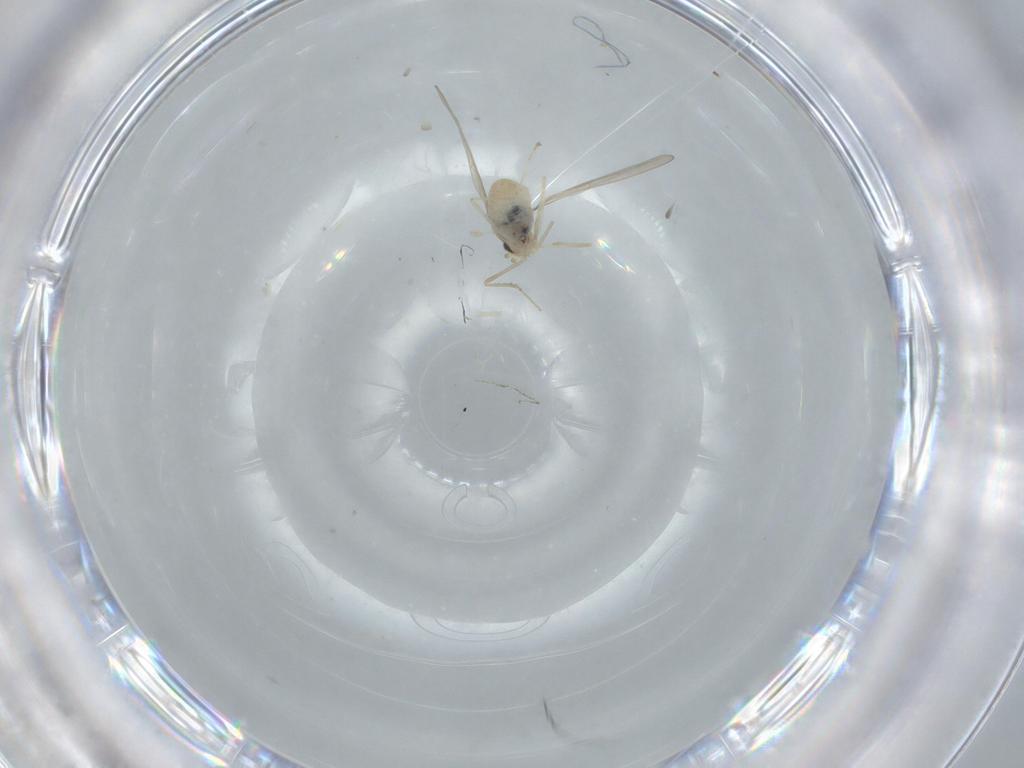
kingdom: Animalia
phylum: Arthropoda
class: Insecta
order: Diptera
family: Cecidomyiidae
